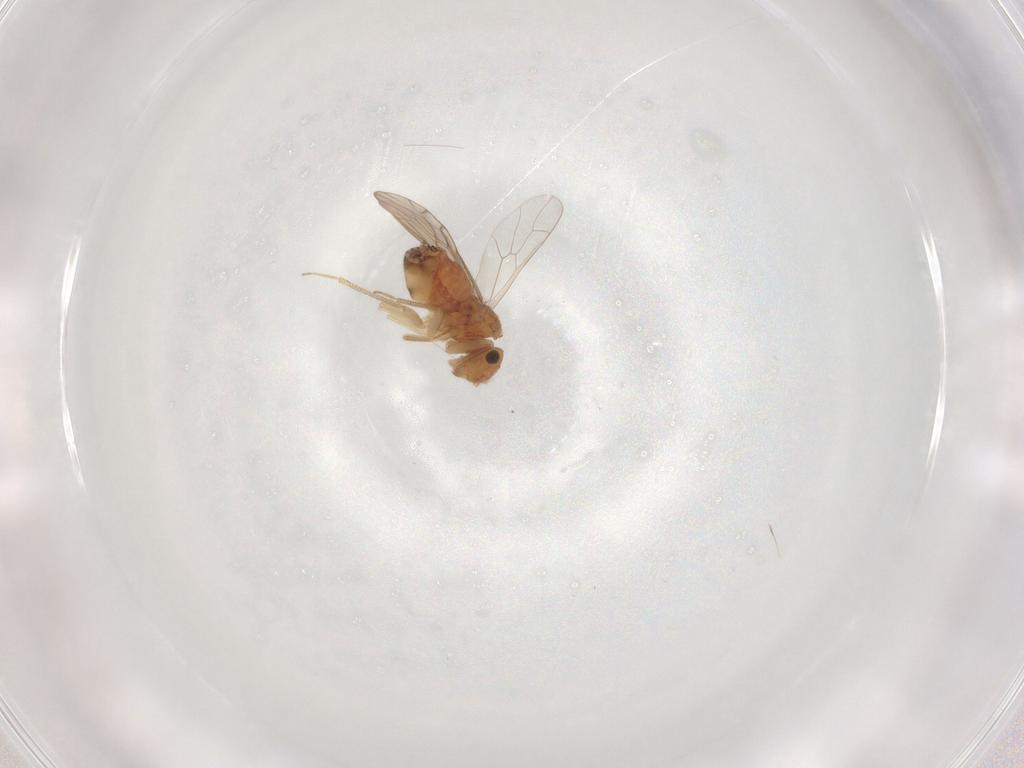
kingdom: Animalia
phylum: Arthropoda
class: Insecta
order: Psocodea
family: Ectopsocidae
